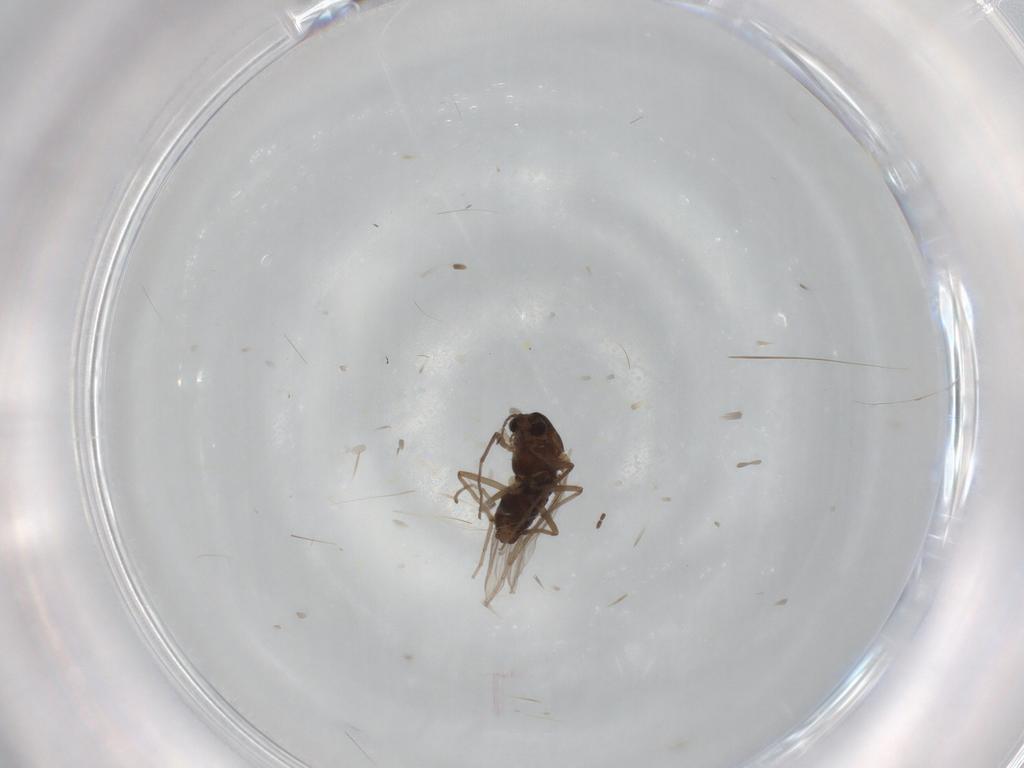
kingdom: Animalia
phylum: Arthropoda
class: Insecta
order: Diptera
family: Chironomidae
